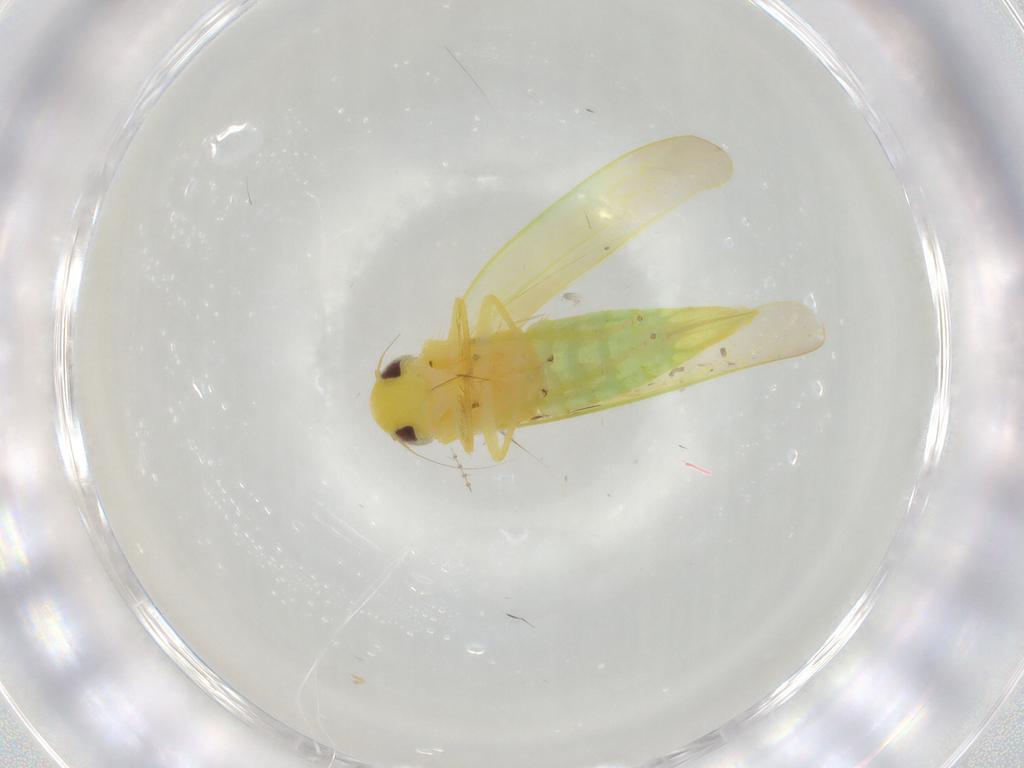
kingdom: Animalia
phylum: Arthropoda
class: Insecta
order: Hemiptera
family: Cicadellidae
